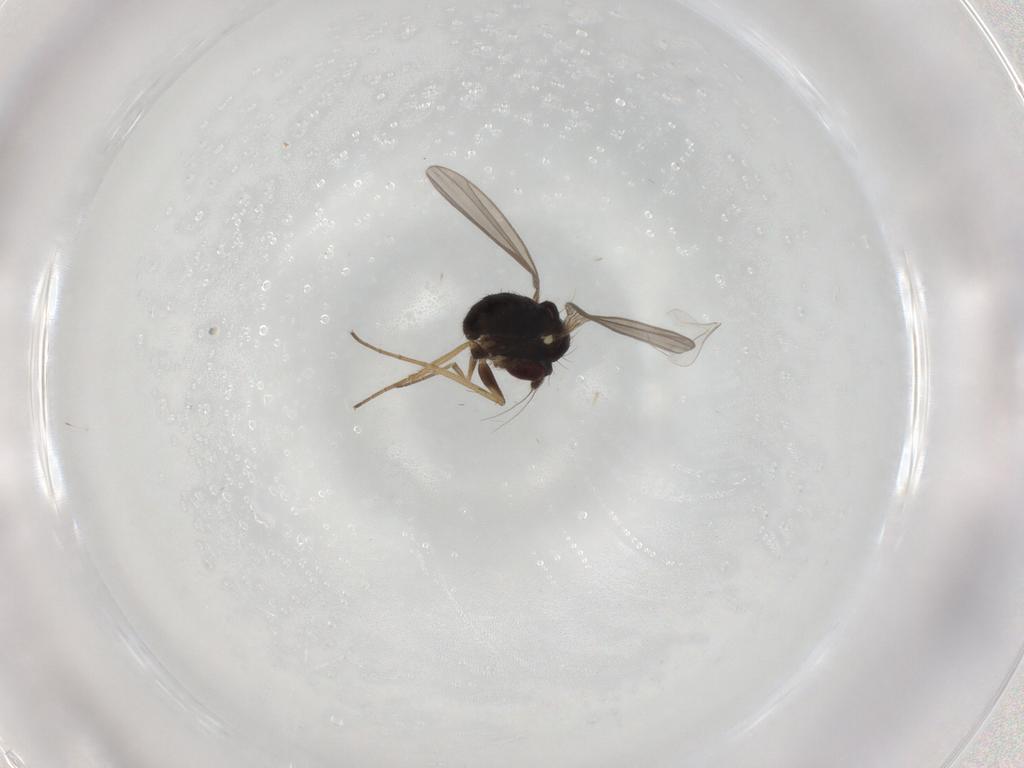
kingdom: Animalia
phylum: Arthropoda
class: Insecta
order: Diptera
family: Dolichopodidae
